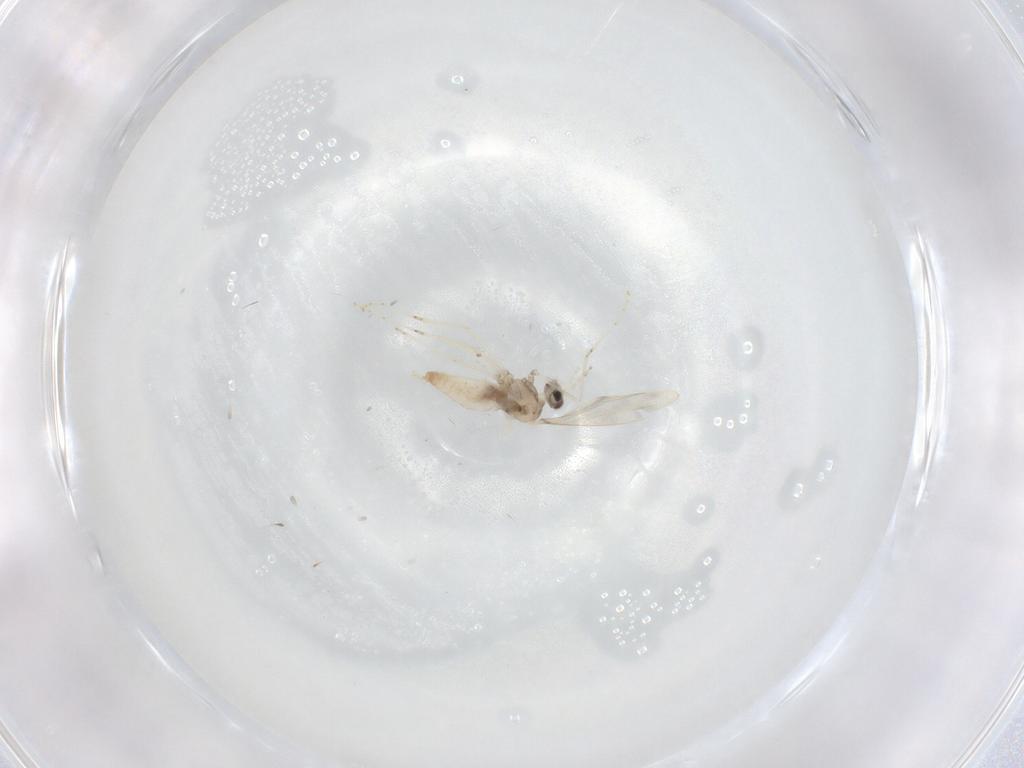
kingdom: Animalia
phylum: Arthropoda
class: Insecta
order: Diptera
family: Cecidomyiidae
